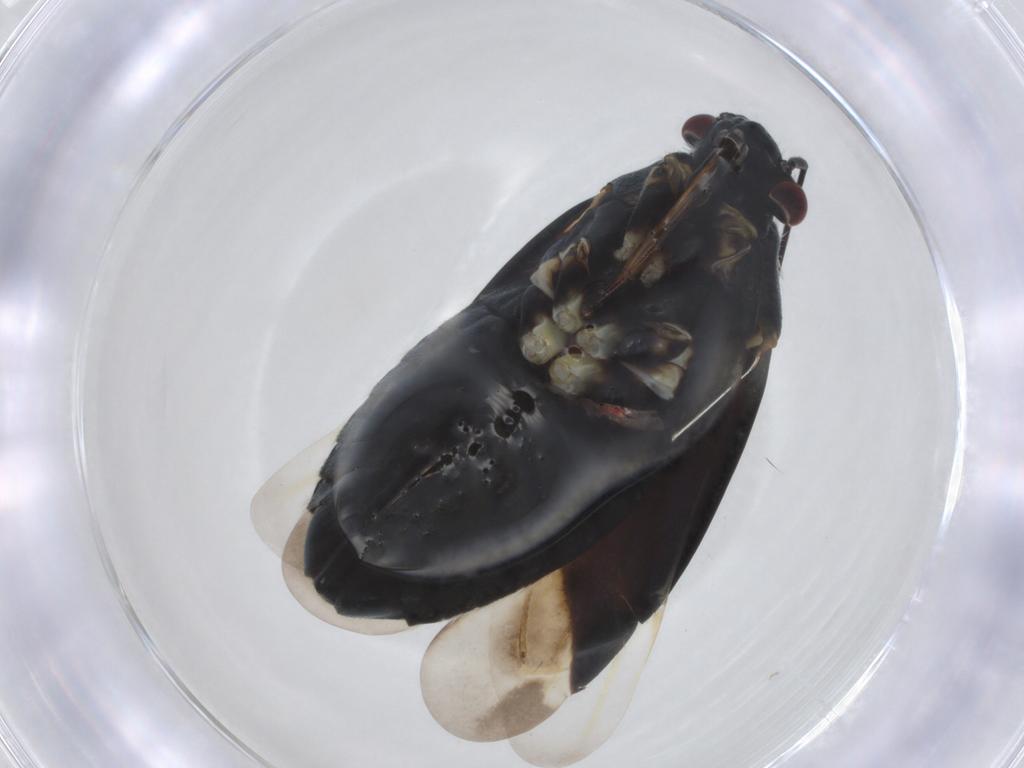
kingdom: Animalia
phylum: Arthropoda
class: Insecta
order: Hemiptera
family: Miridae
